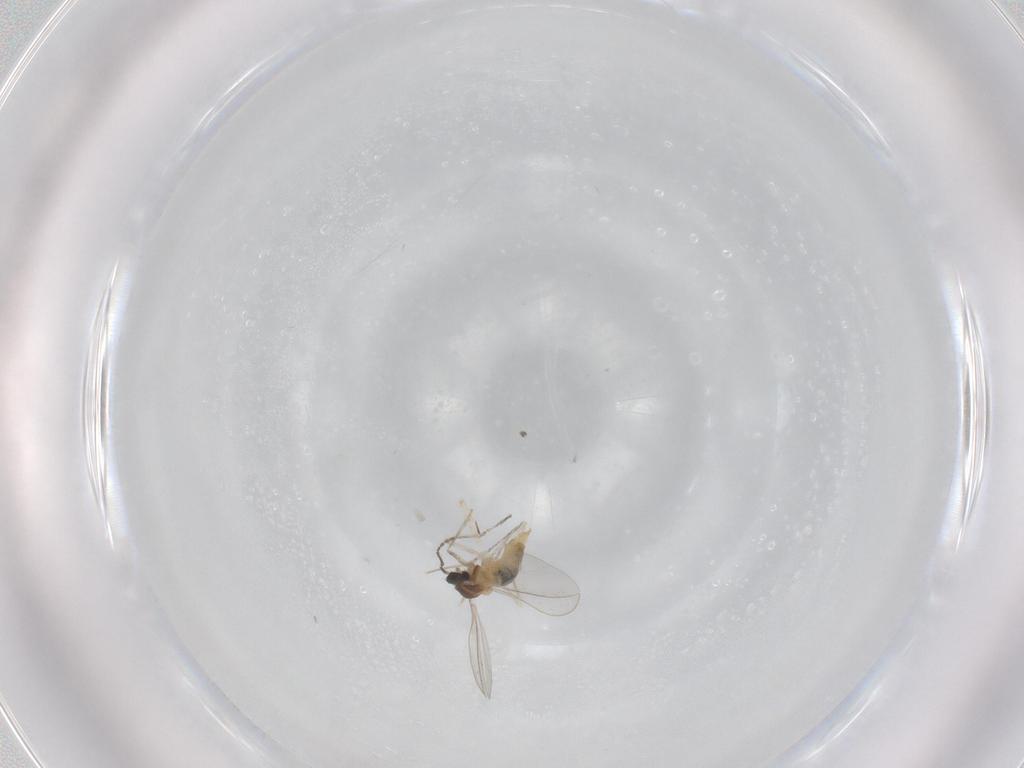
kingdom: Animalia
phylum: Arthropoda
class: Insecta
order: Diptera
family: Cecidomyiidae
